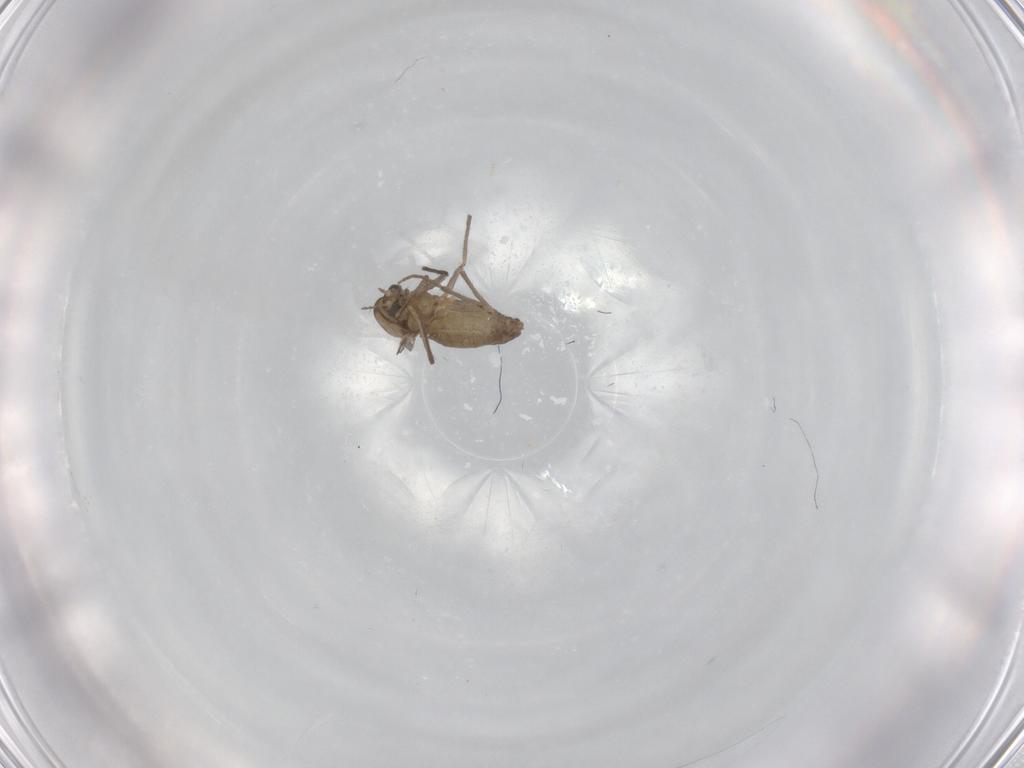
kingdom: Animalia
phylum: Arthropoda
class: Insecta
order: Diptera
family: Chironomidae
